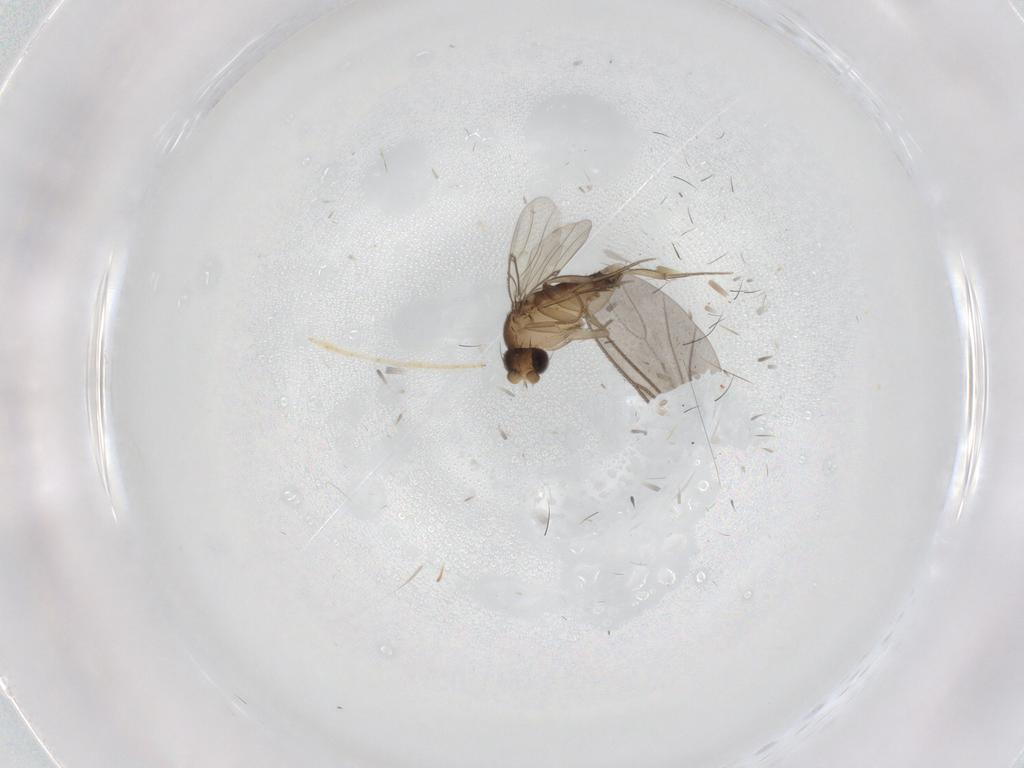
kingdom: Animalia
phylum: Arthropoda
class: Insecta
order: Diptera
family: Phoridae
